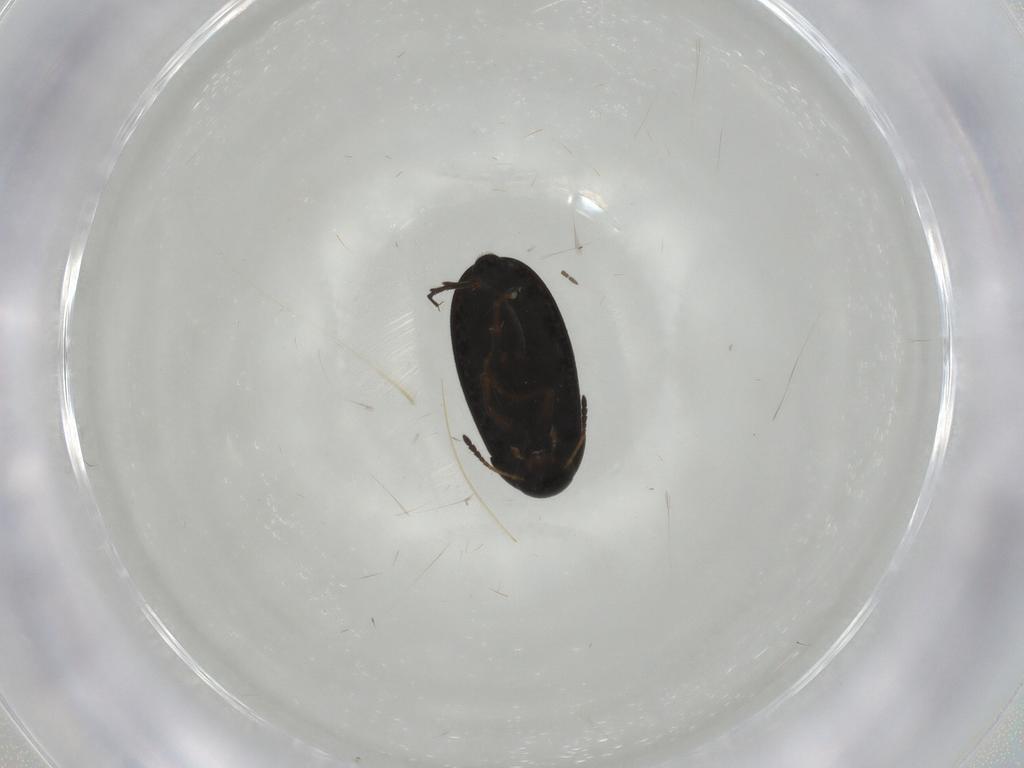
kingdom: Animalia
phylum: Arthropoda
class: Insecta
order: Coleoptera
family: Scraptiidae
